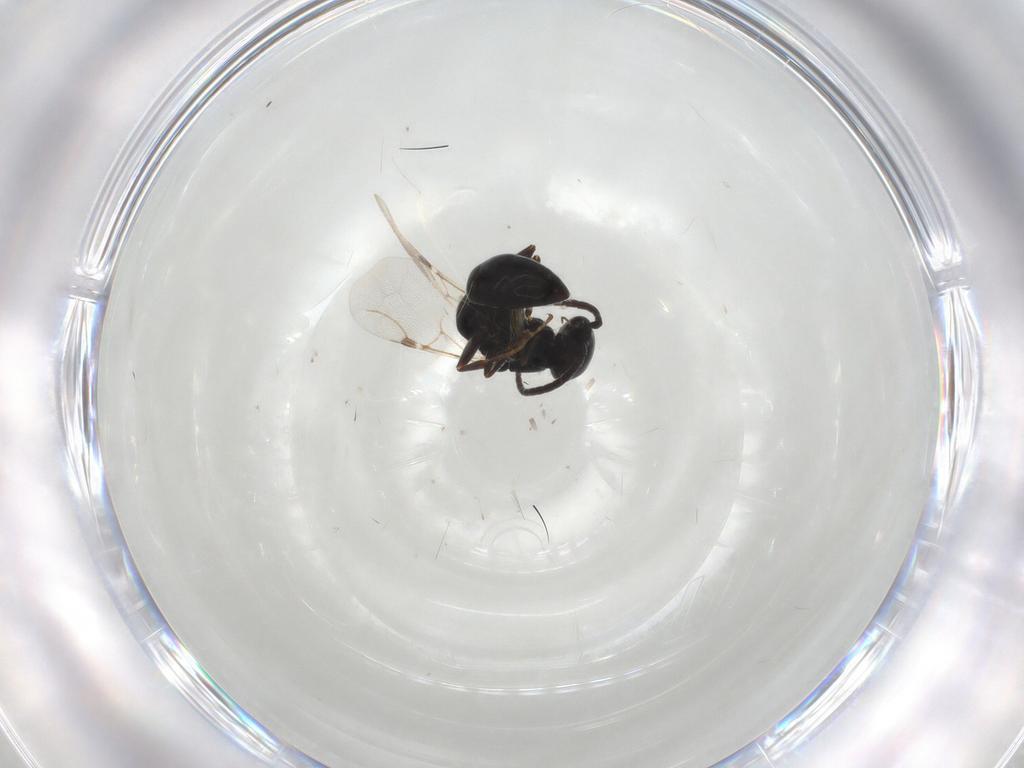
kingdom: Animalia
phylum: Arthropoda
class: Insecta
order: Hymenoptera
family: Bethylidae
